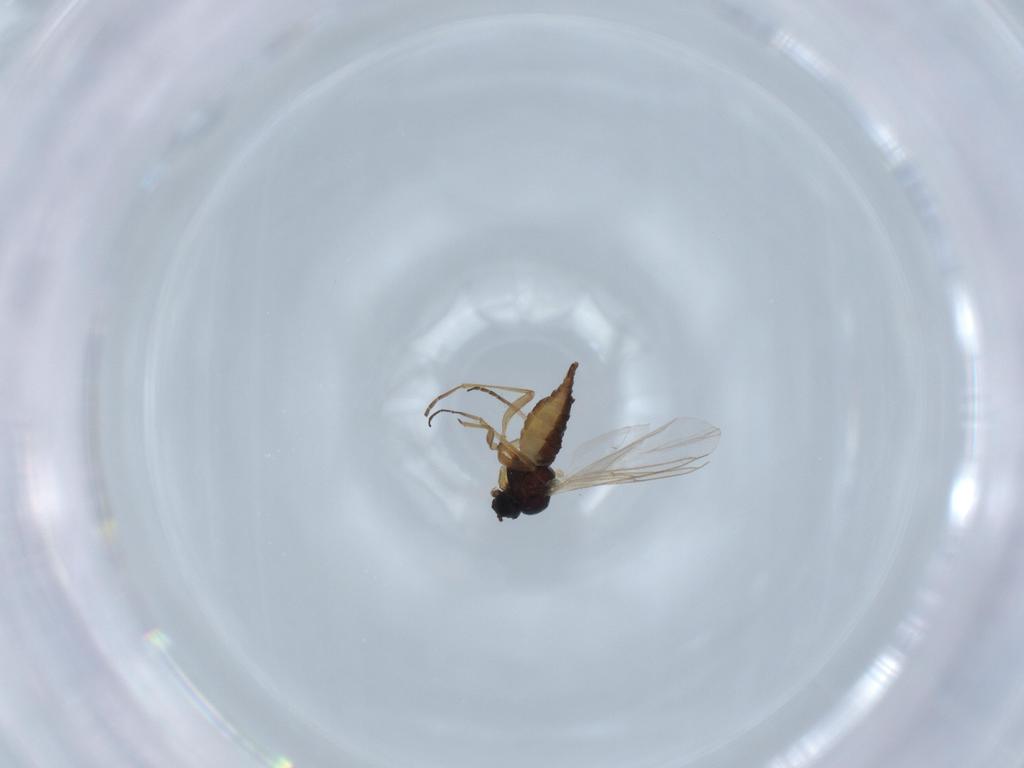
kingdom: Animalia
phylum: Arthropoda
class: Insecta
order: Diptera
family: Sciaridae
